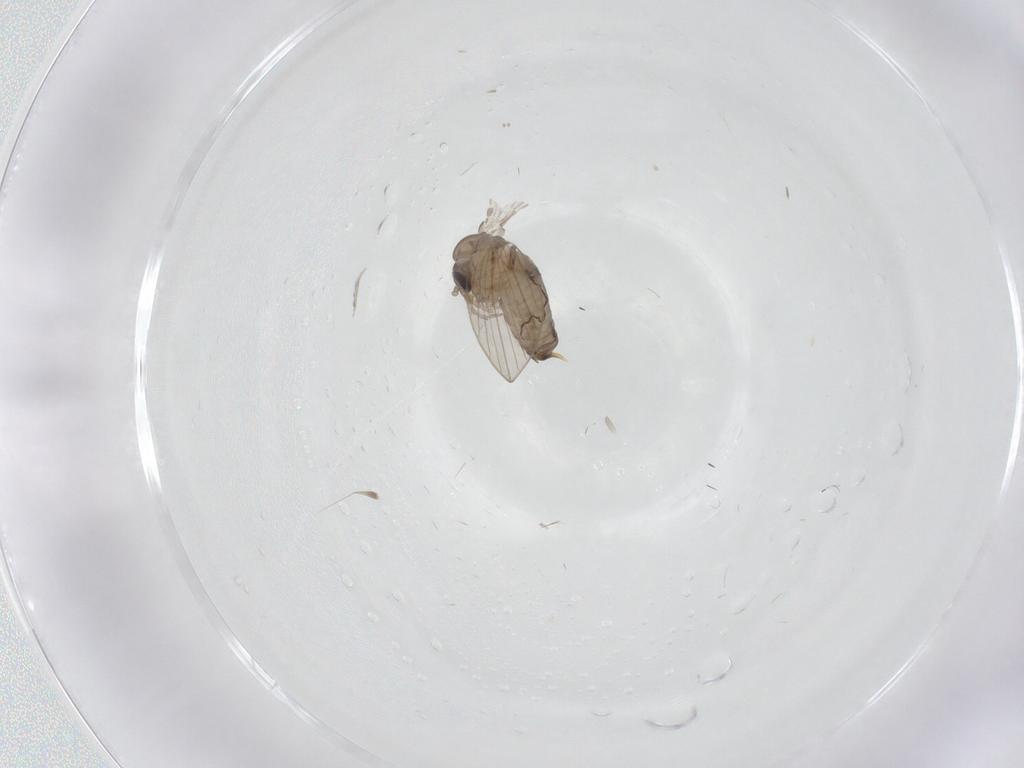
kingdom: Animalia
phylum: Arthropoda
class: Insecta
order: Diptera
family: Psychodidae
